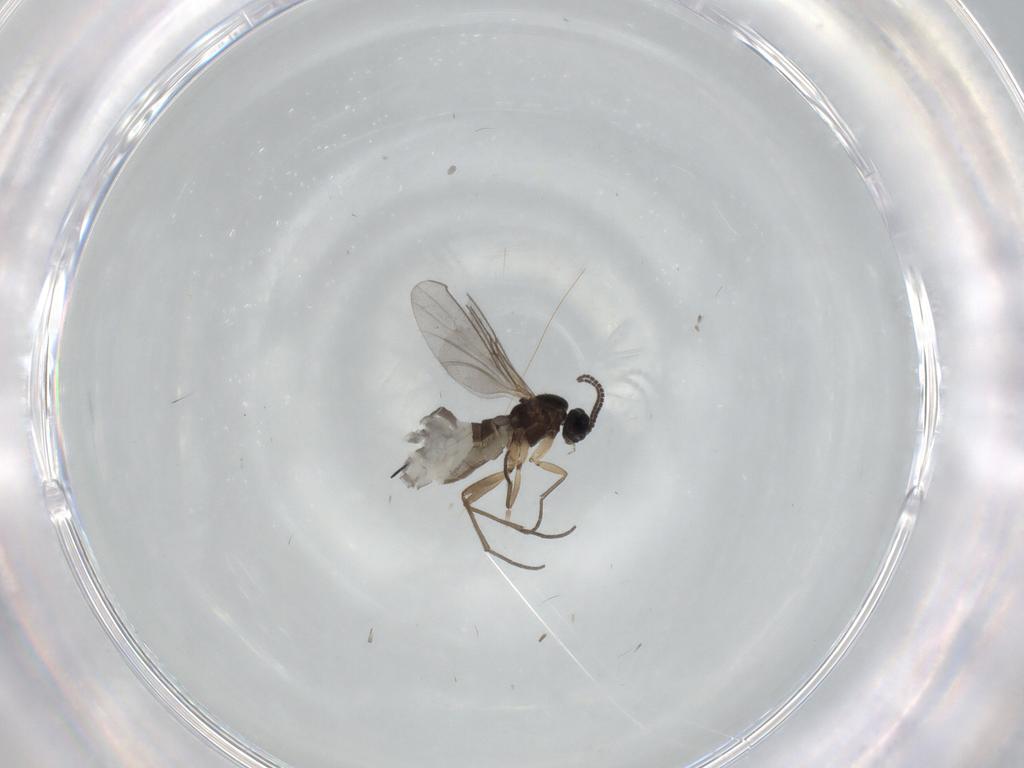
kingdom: Animalia
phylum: Arthropoda
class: Insecta
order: Diptera
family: Sciaridae
